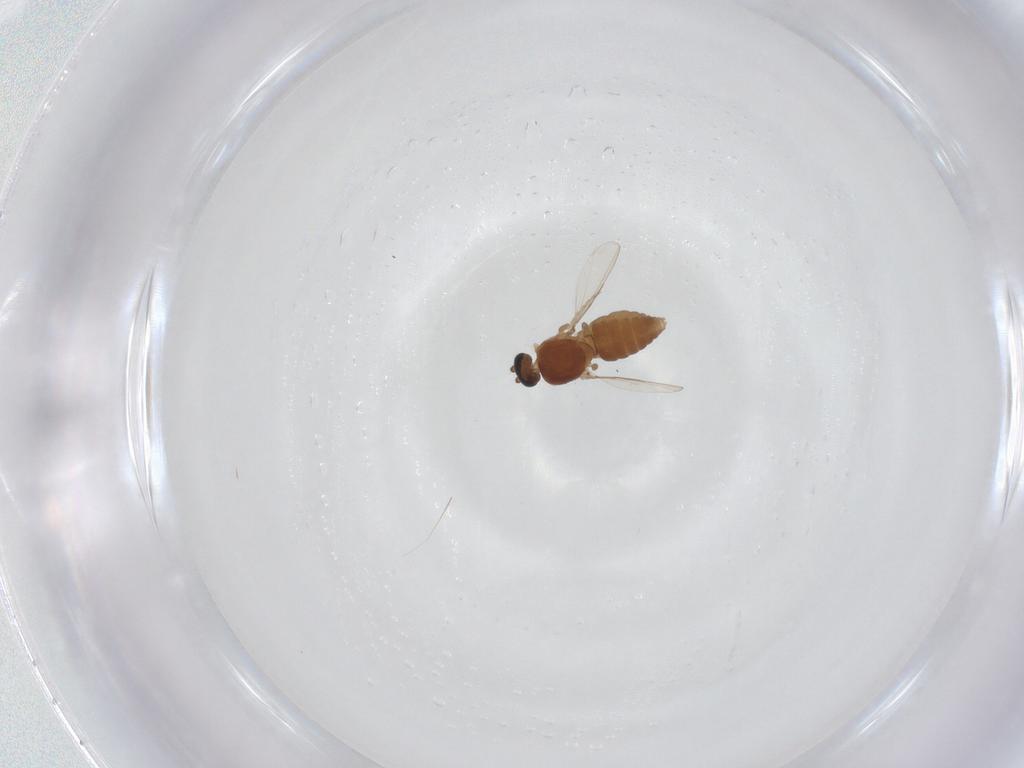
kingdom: Animalia
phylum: Arthropoda
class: Insecta
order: Diptera
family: Ceratopogonidae
